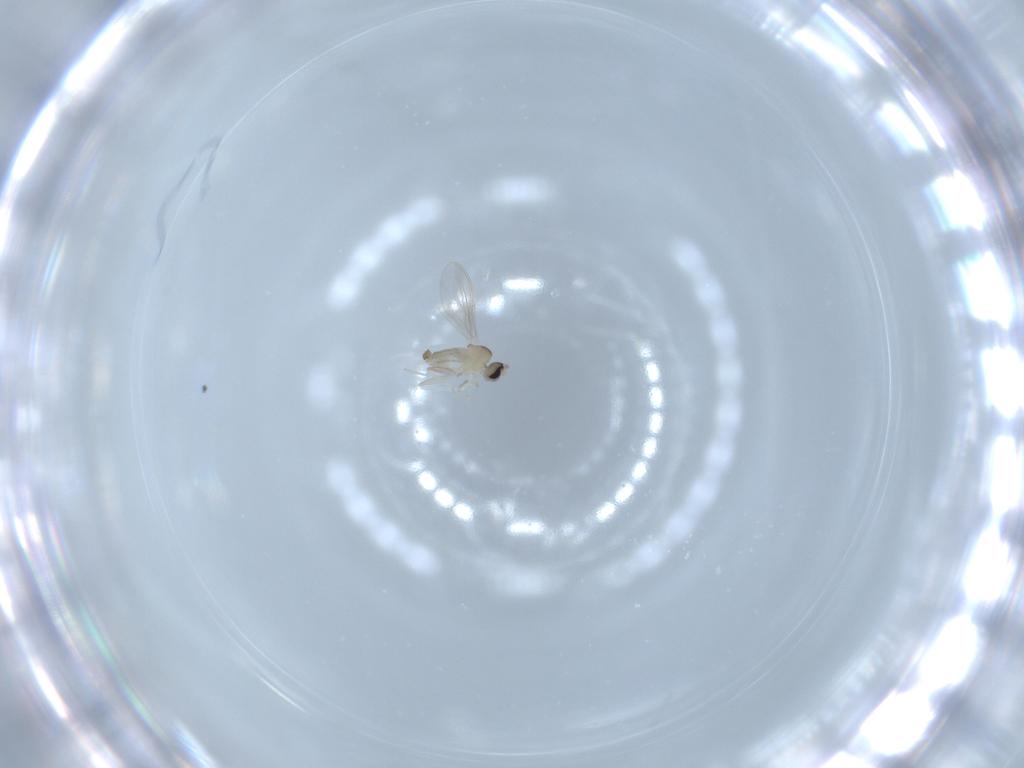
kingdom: Animalia
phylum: Arthropoda
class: Insecta
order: Diptera
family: Cecidomyiidae
